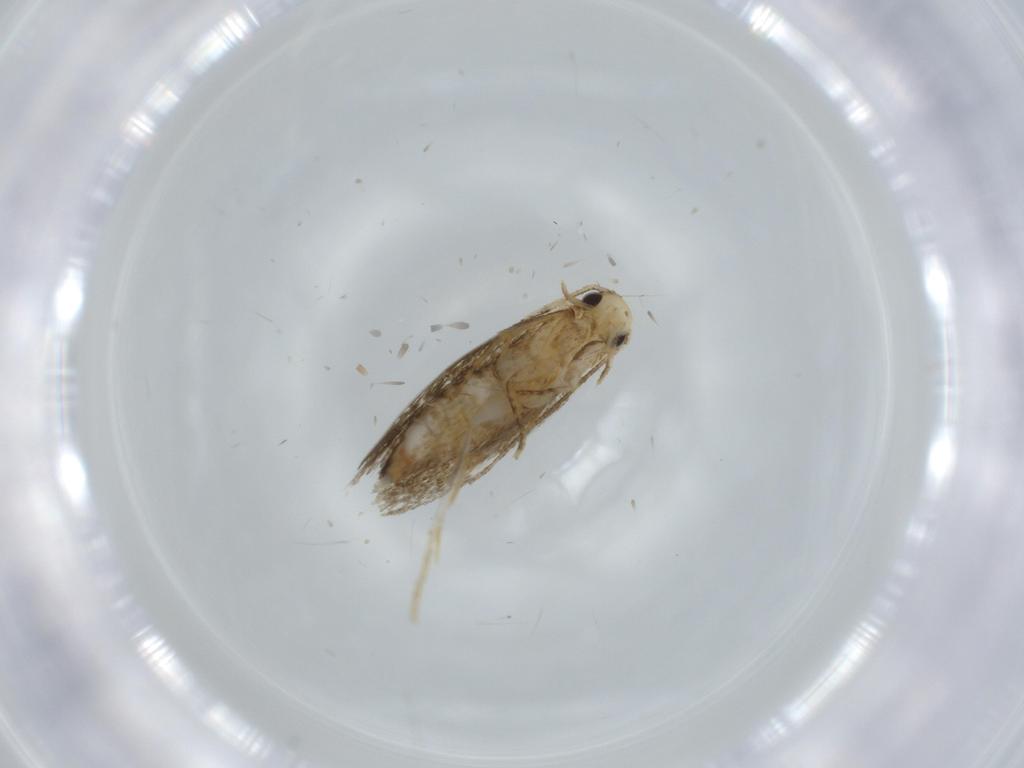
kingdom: Animalia
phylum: Arthropoda
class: Insecta
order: Lepidoptera
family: Tineidae
